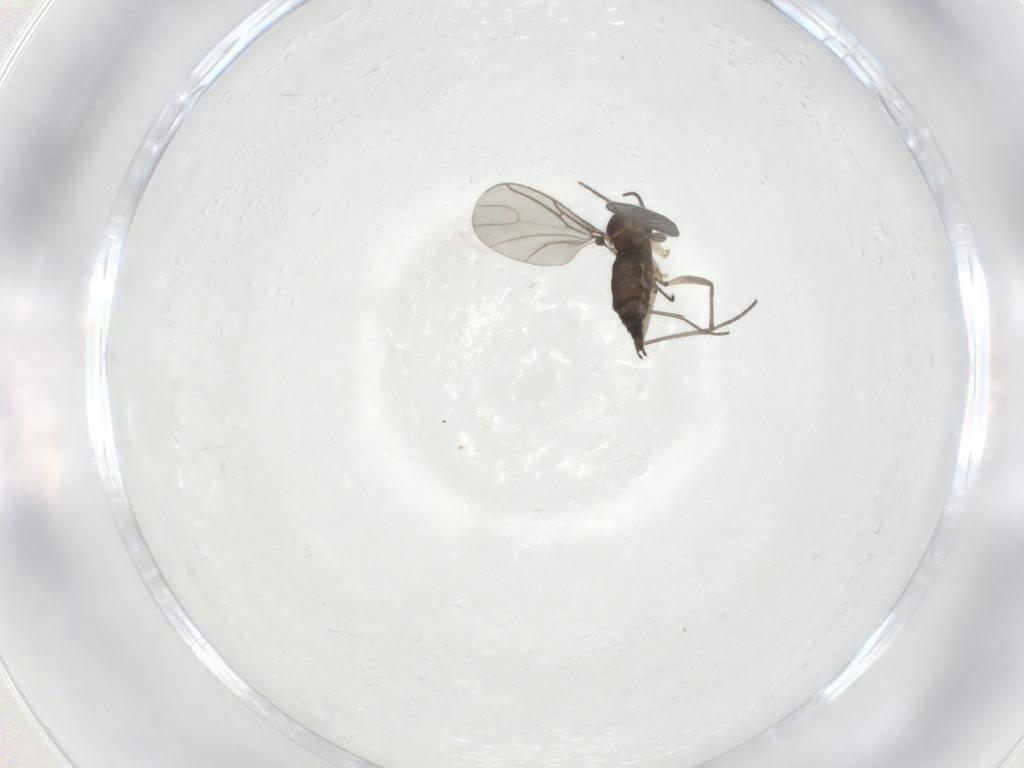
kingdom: Animalia
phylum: Arthropoda
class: Insecta
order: Diptera
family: Sciaridae
